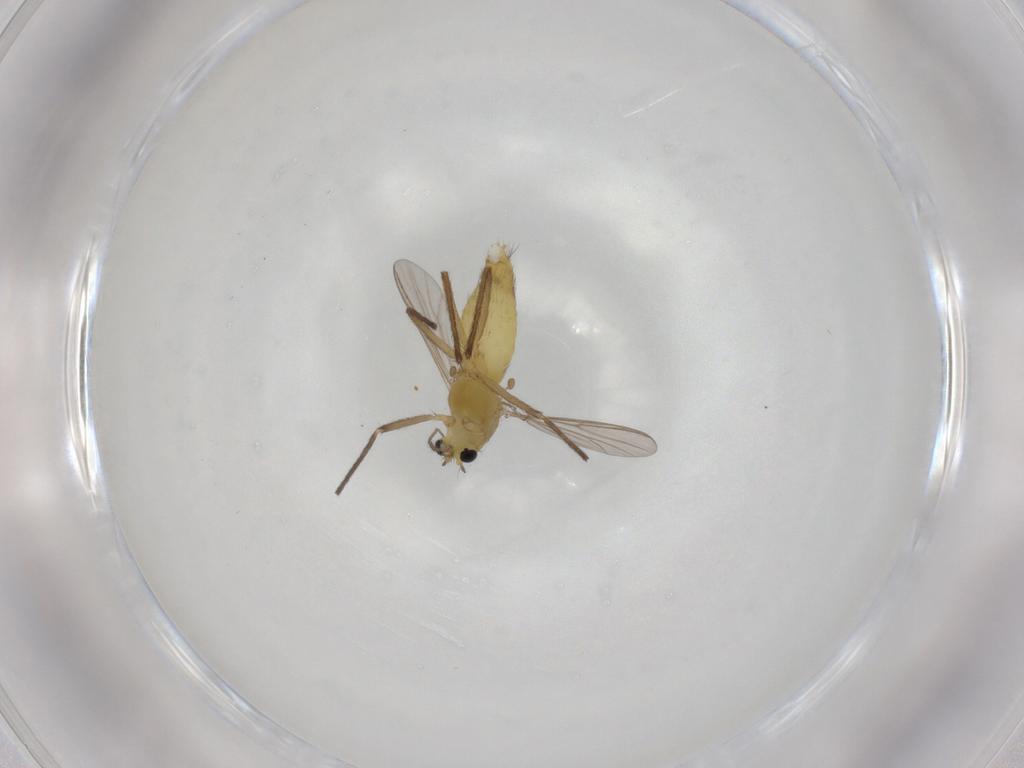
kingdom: Animalia
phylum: Arthropoda
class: Insecta
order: Diptera
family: Chironomidae
